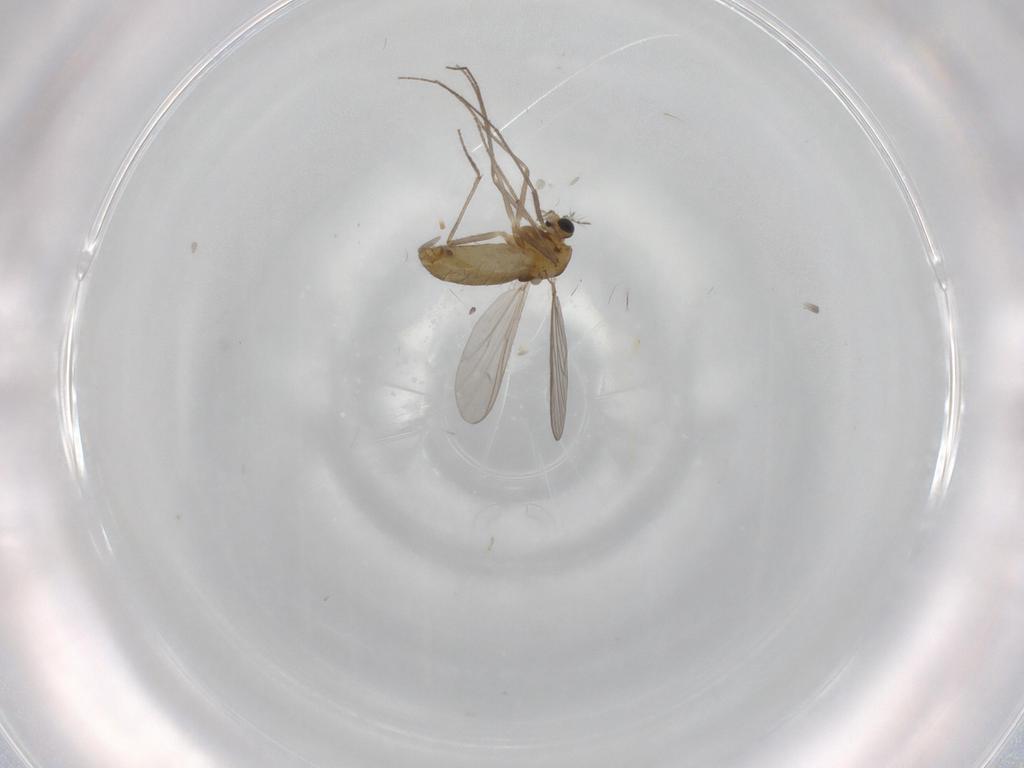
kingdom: Animalia
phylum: Arthropoda
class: Insecta
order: Diptera
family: Chironomidae
